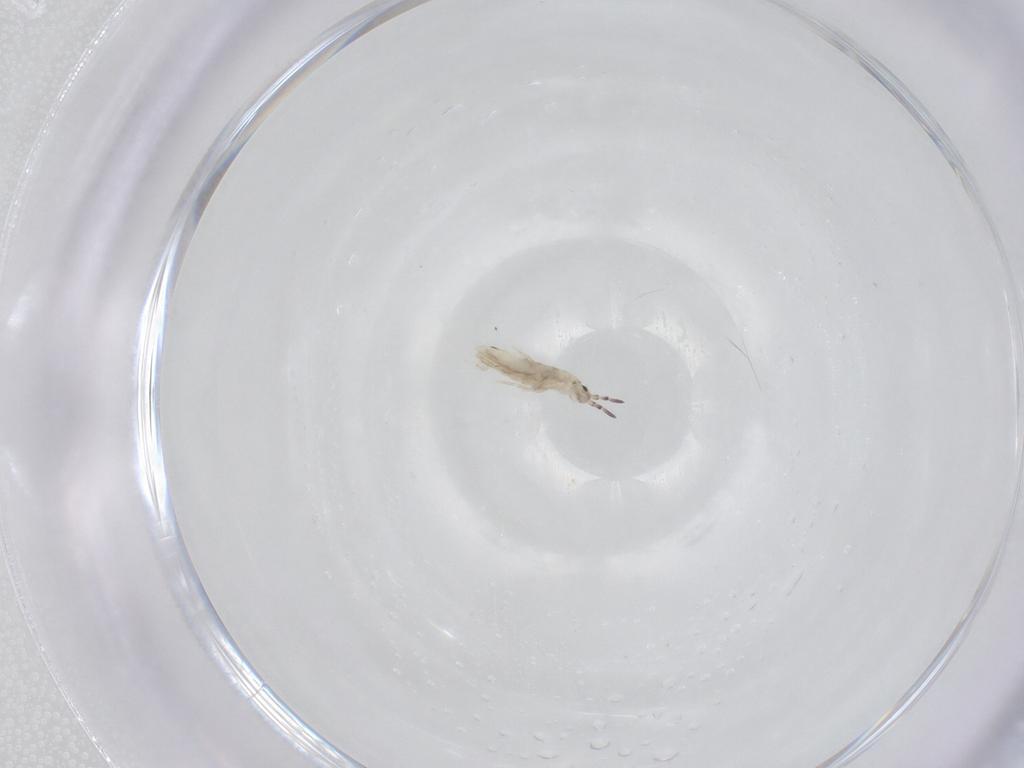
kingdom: Animalia
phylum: Arthropoda
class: Collembola
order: Entomobryomorpha
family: Entomobryidae
